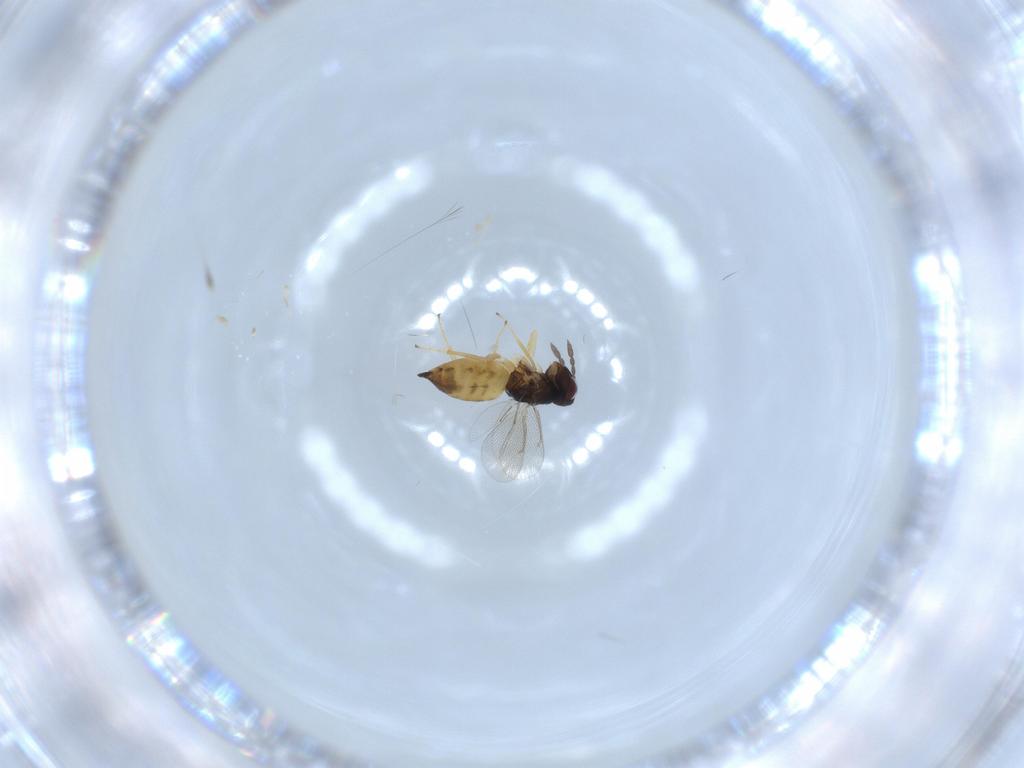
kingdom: Animalia
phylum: Arthropoda
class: Insecta
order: Hymenoptera
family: Eulophidae
